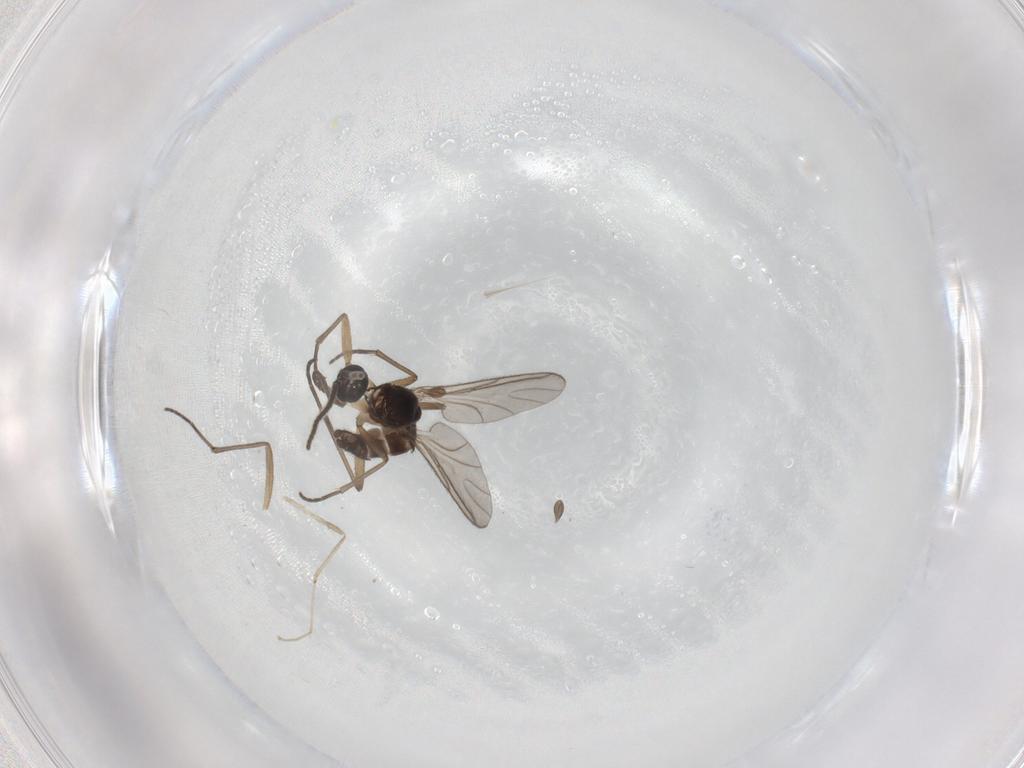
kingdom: Animalia
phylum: Arthropoda
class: Insecta
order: Diptera
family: Sciaridae
